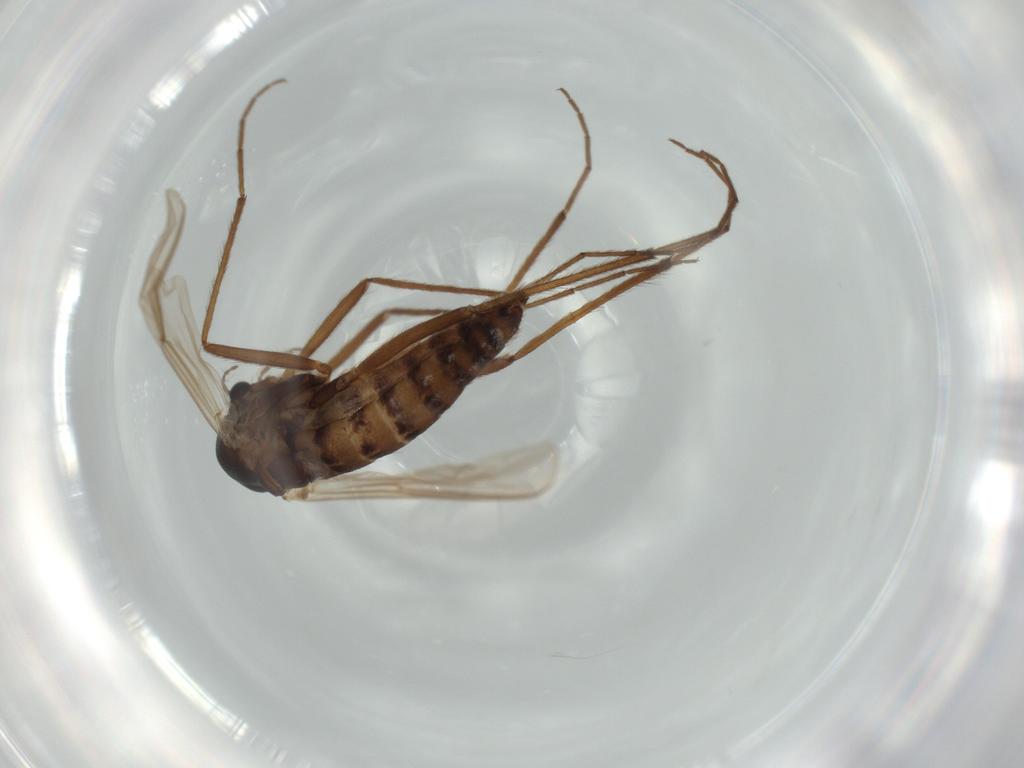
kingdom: Animalia
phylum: Arthropoda
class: Insecta
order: Diptera
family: Chironomidae
